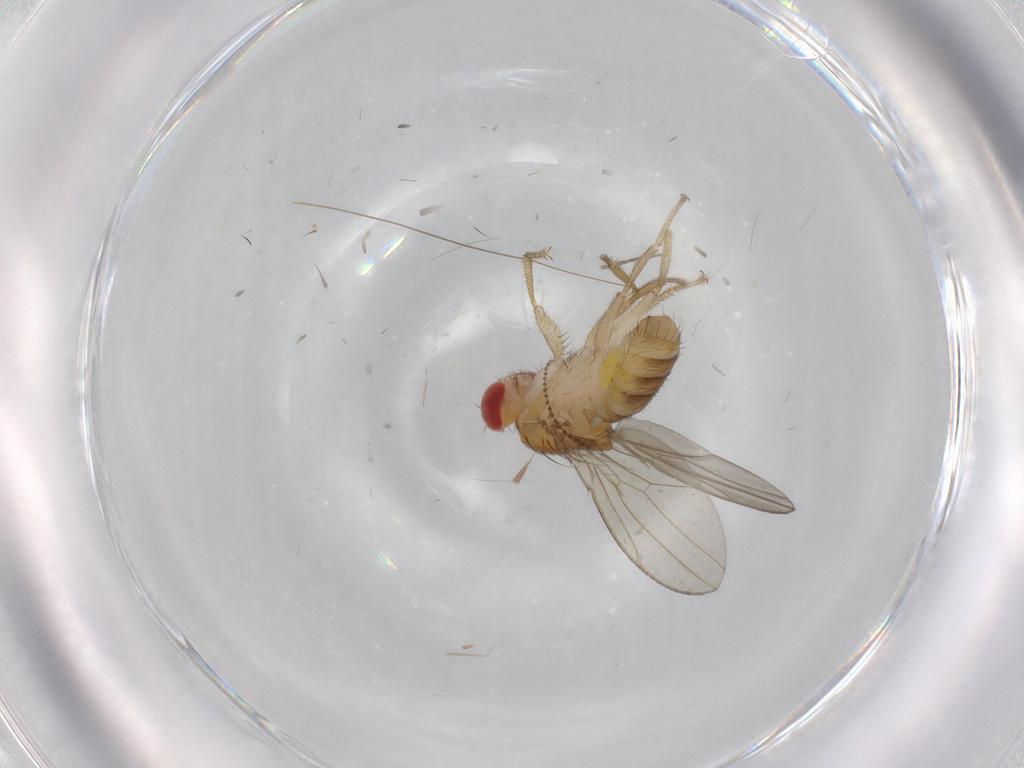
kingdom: Animalia
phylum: Arthropoda
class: Insecta
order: Diptera
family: Drosophilidae
